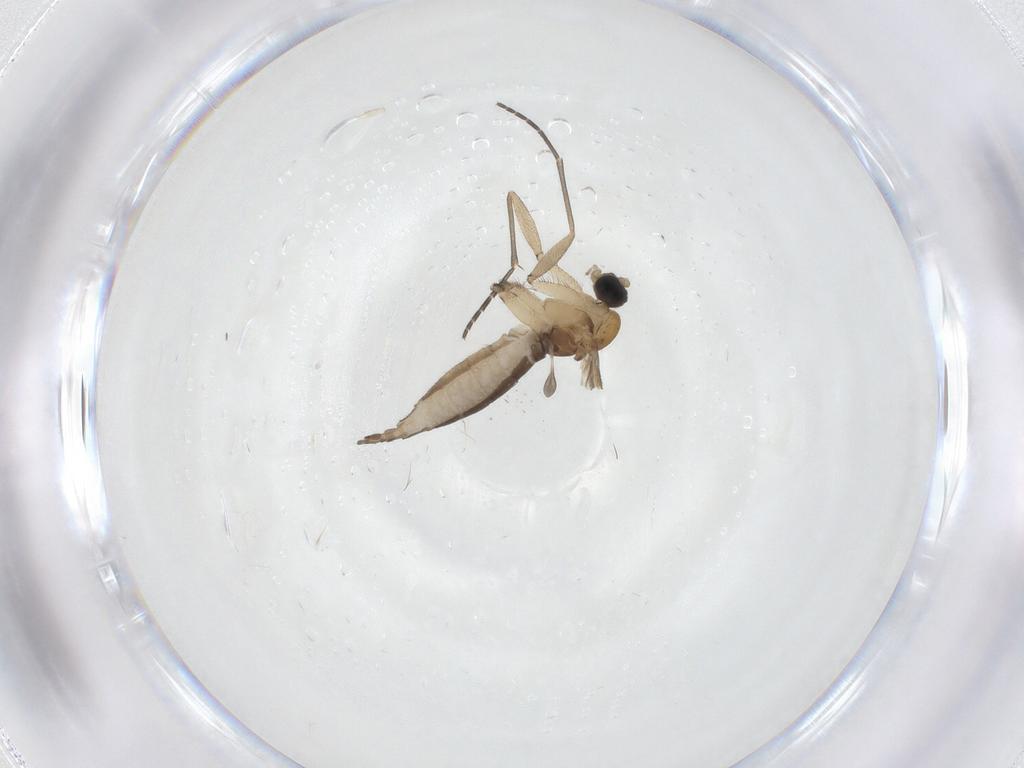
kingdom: Animalia
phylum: Arthropoda
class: Insecta
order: Diptera
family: Sciaridae
